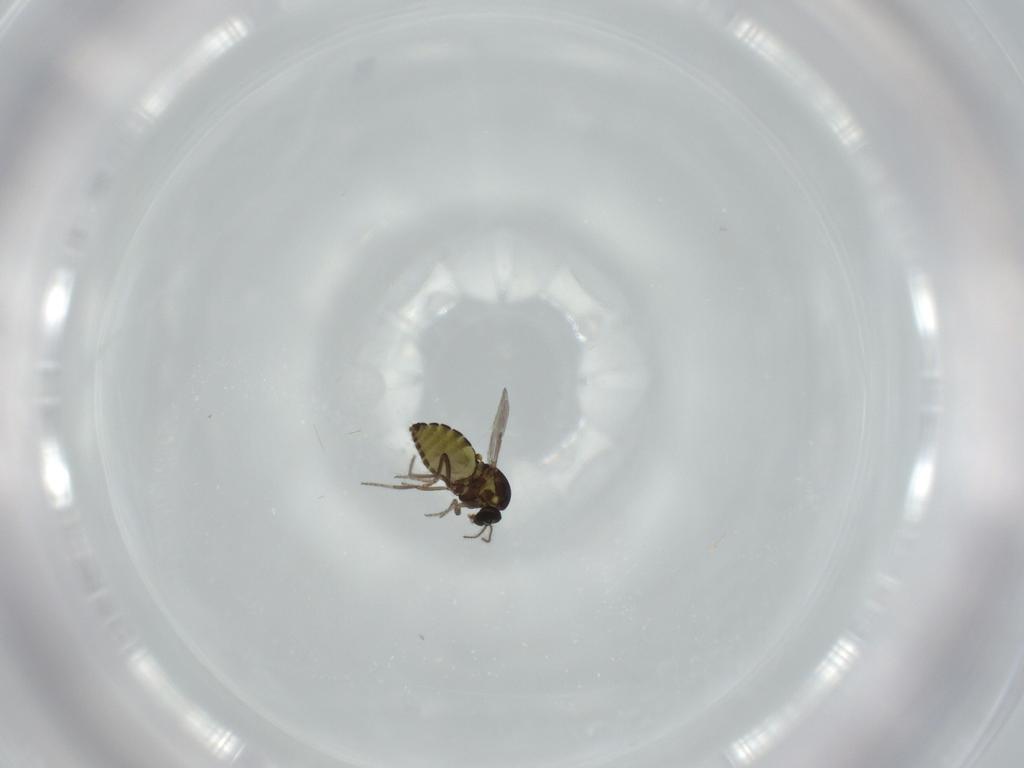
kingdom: Animalia
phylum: Arthropoda
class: Insecta
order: Diptera
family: Ceratopogonidae
